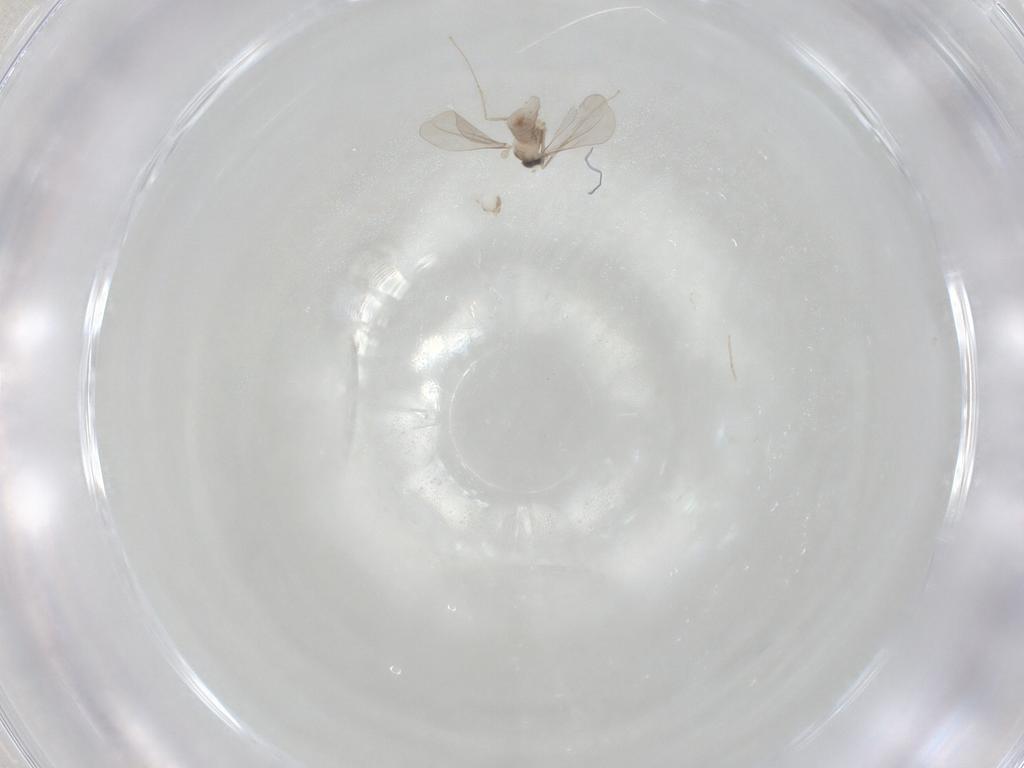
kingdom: Animalia
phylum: Arthropoda
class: Insecta
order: Diptera
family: Cecidomyiidae
